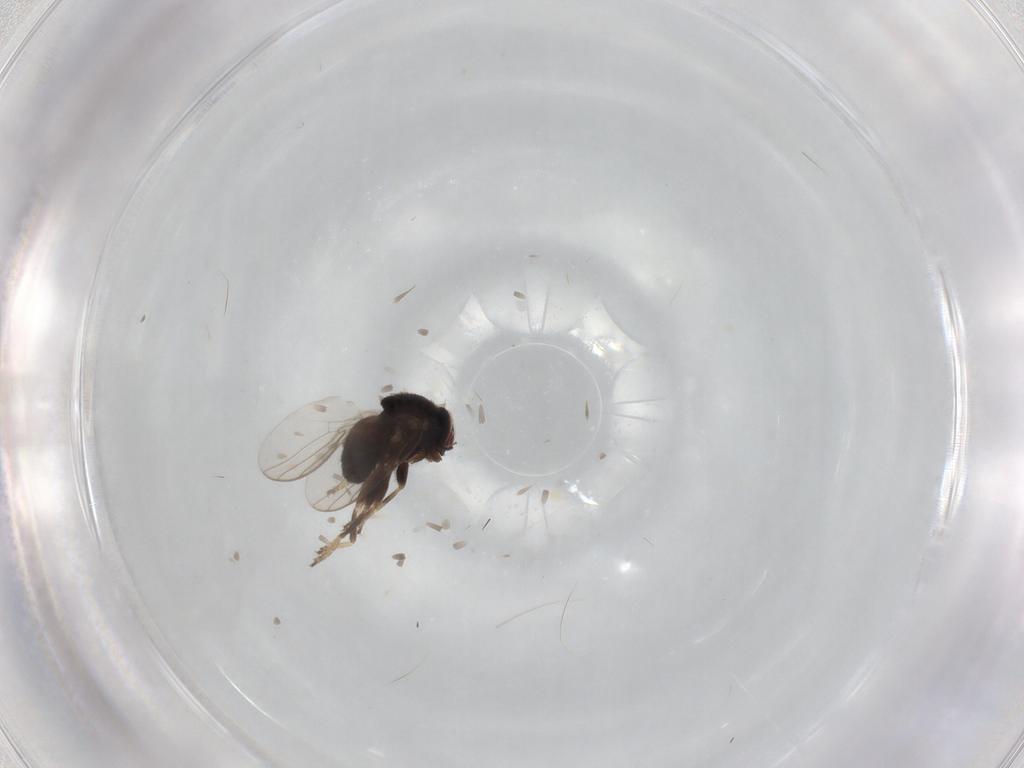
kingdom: Animalia
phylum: Arthropoda
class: Insecta
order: Diptera
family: Chloropidae
